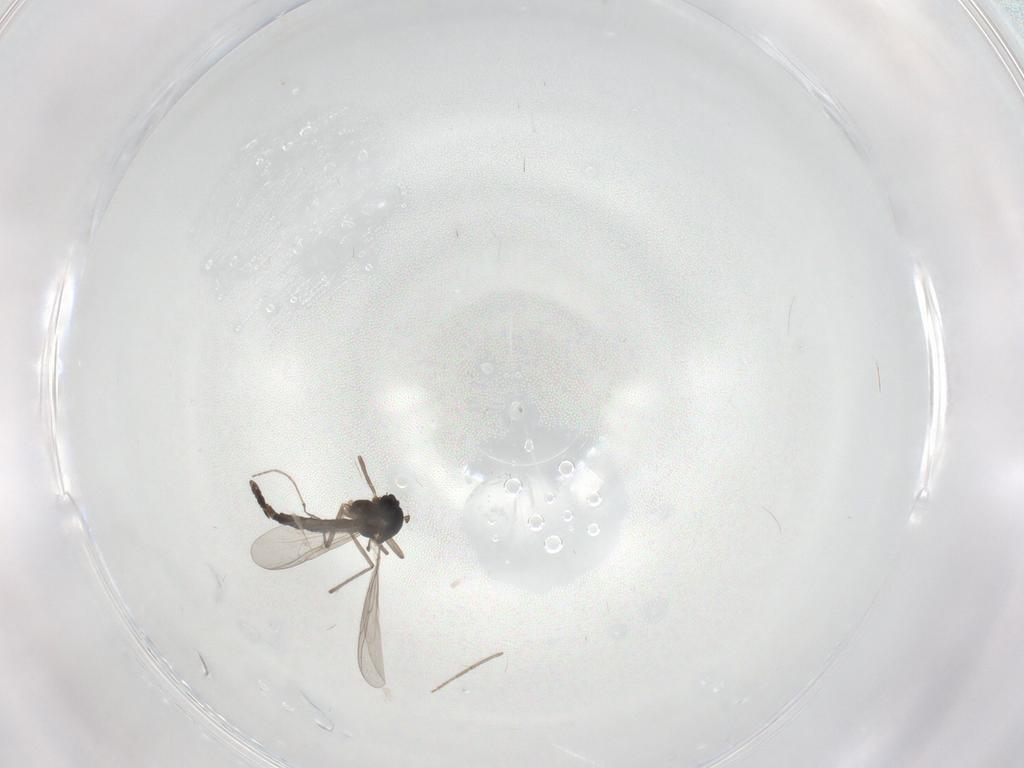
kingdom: Animalia
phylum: Arthropoda
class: Insecta
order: Diptera
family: Chironomidae
